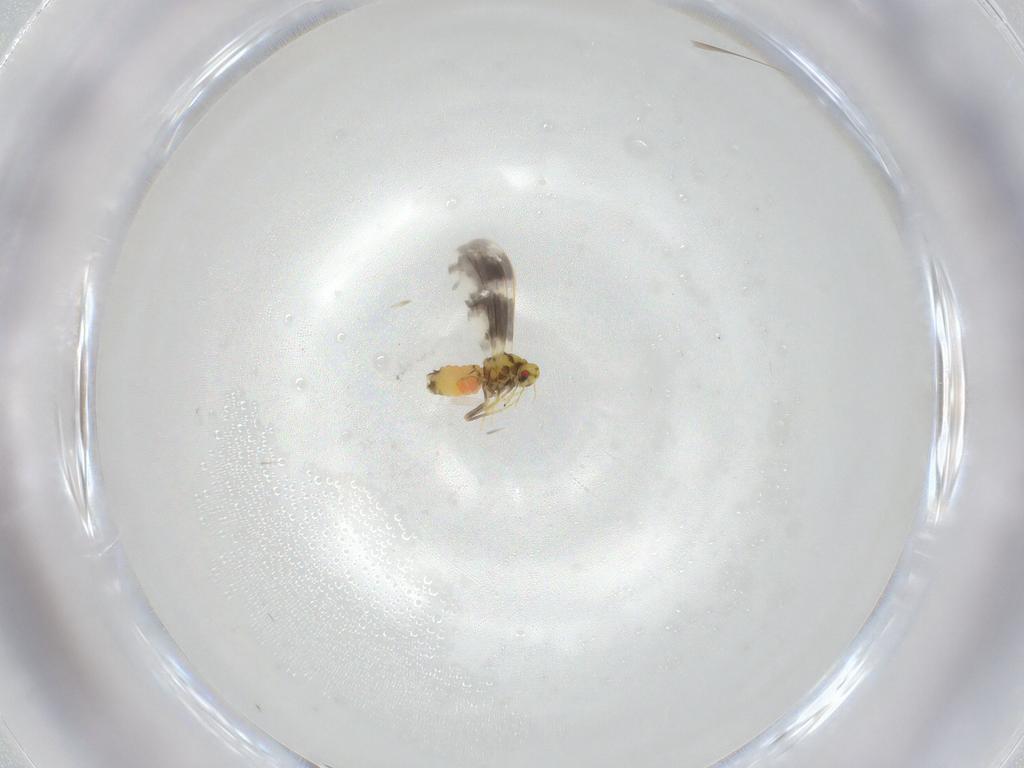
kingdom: Animalia
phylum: Arthropoda
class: Insecta
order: Hemiptera
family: Aleyrodidae
